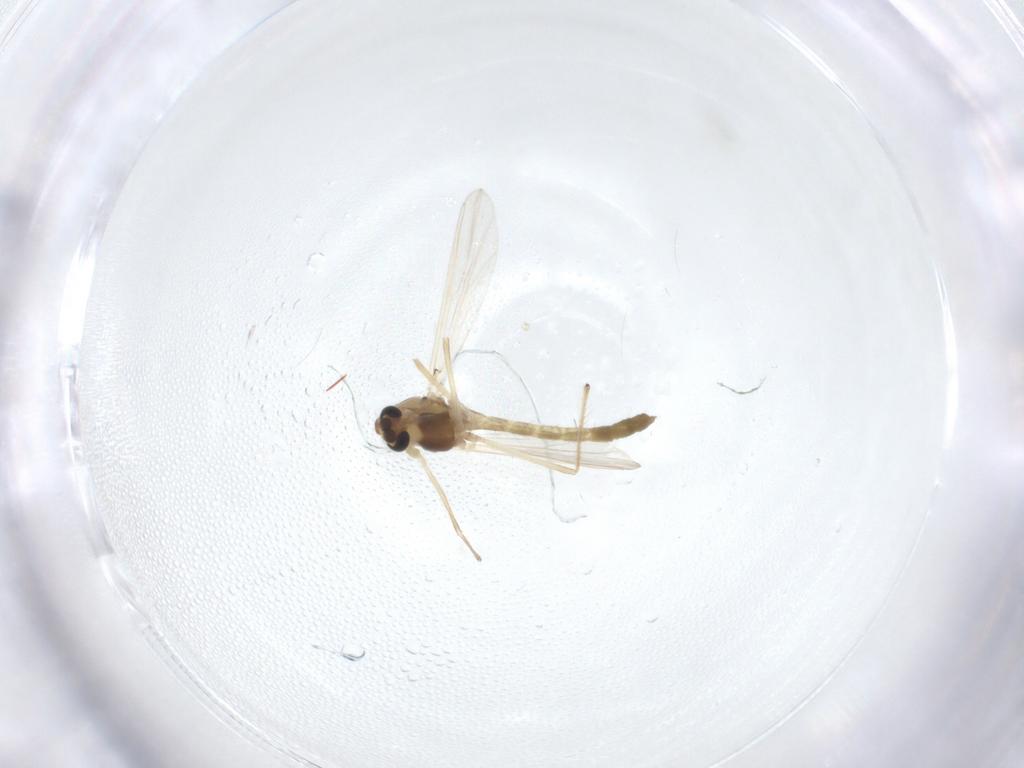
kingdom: Animalia
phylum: Arthropoda
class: Insecta
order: Diptera
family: Chironomidae
